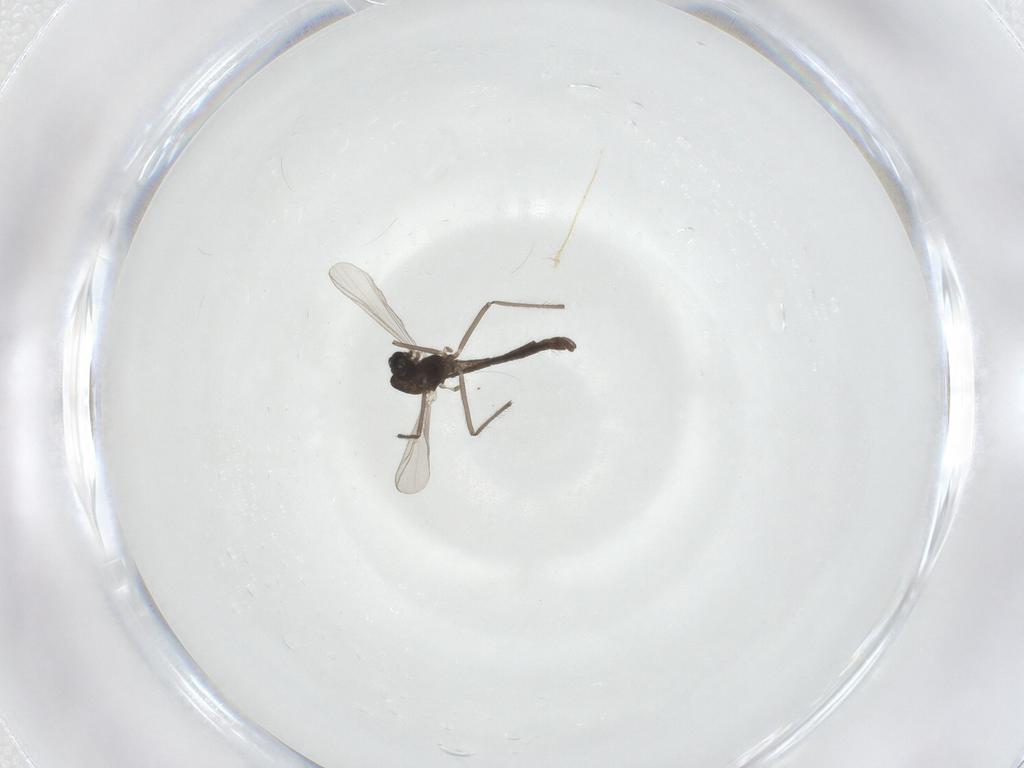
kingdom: Animalia
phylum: Arthropoda
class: Insecta
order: Diptera
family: Chironomidae
